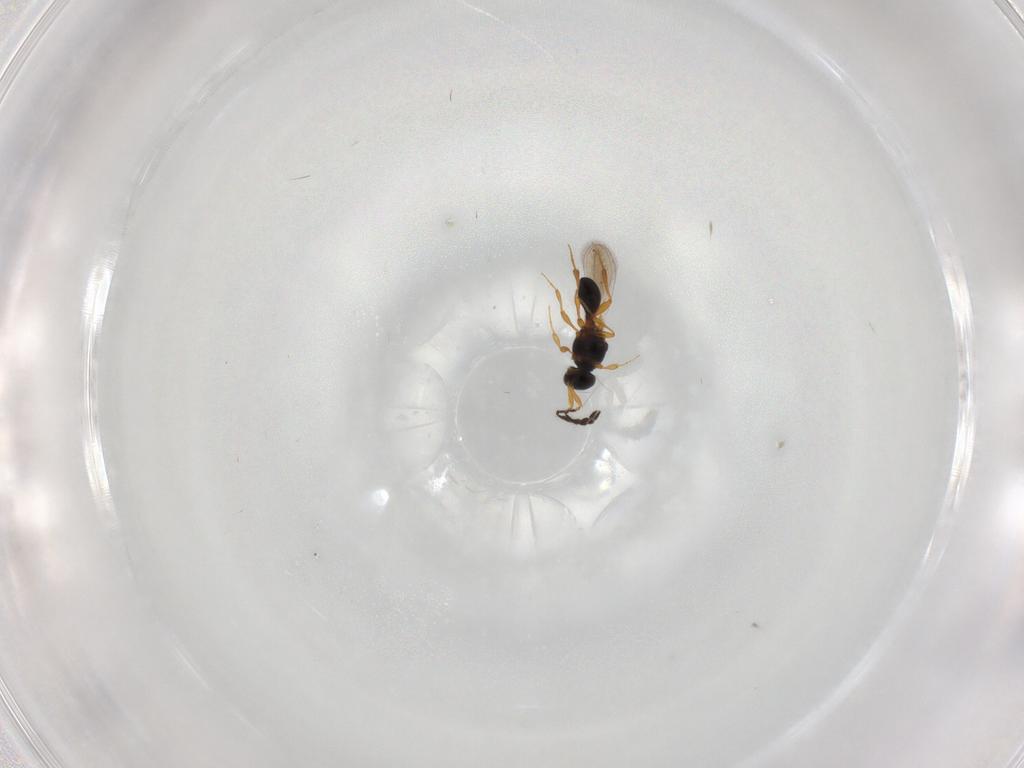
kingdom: Animalia
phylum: Arthropoda
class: Insecta
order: Hymenoptera
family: Platygastridae
